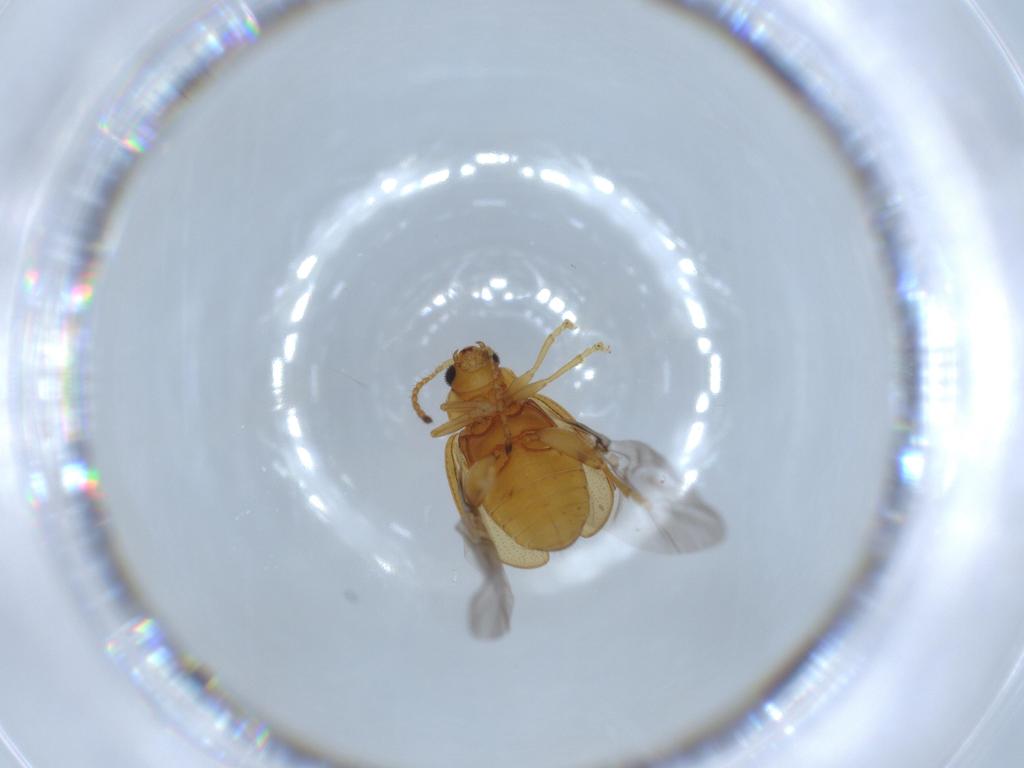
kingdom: Animalia
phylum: Arthropoda
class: Insecta
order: Coleoptera
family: Chrysomelidae
